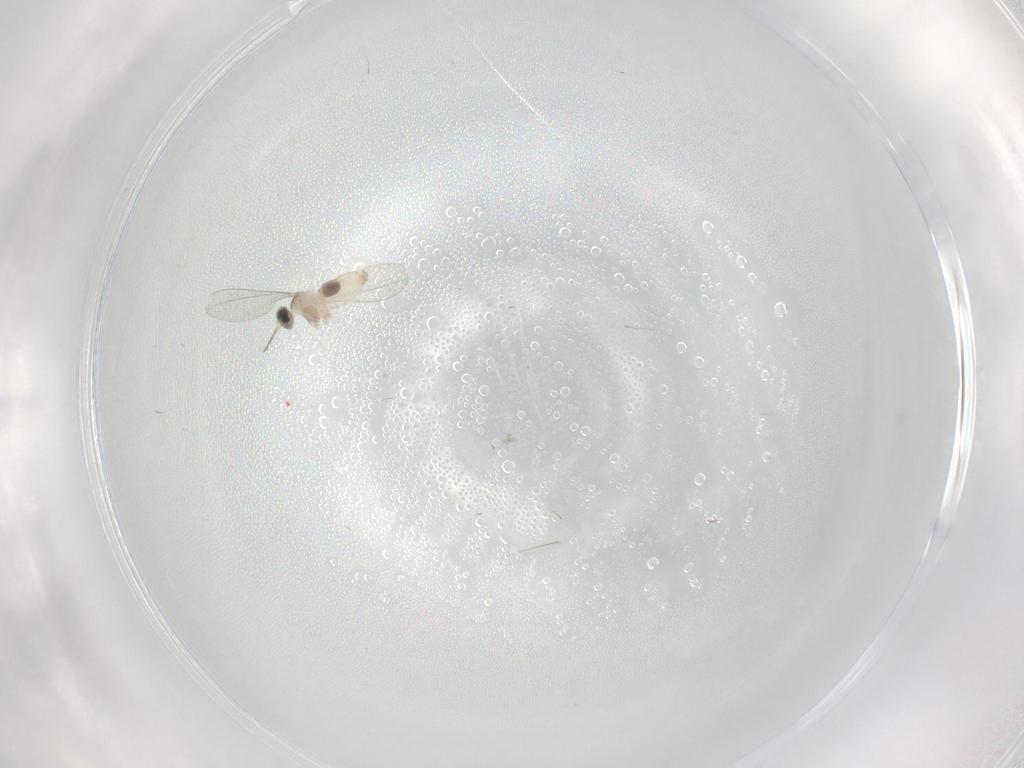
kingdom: Animalia
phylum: Arthropoda
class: Insecta
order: Diptera
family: Cecidomyiidae
